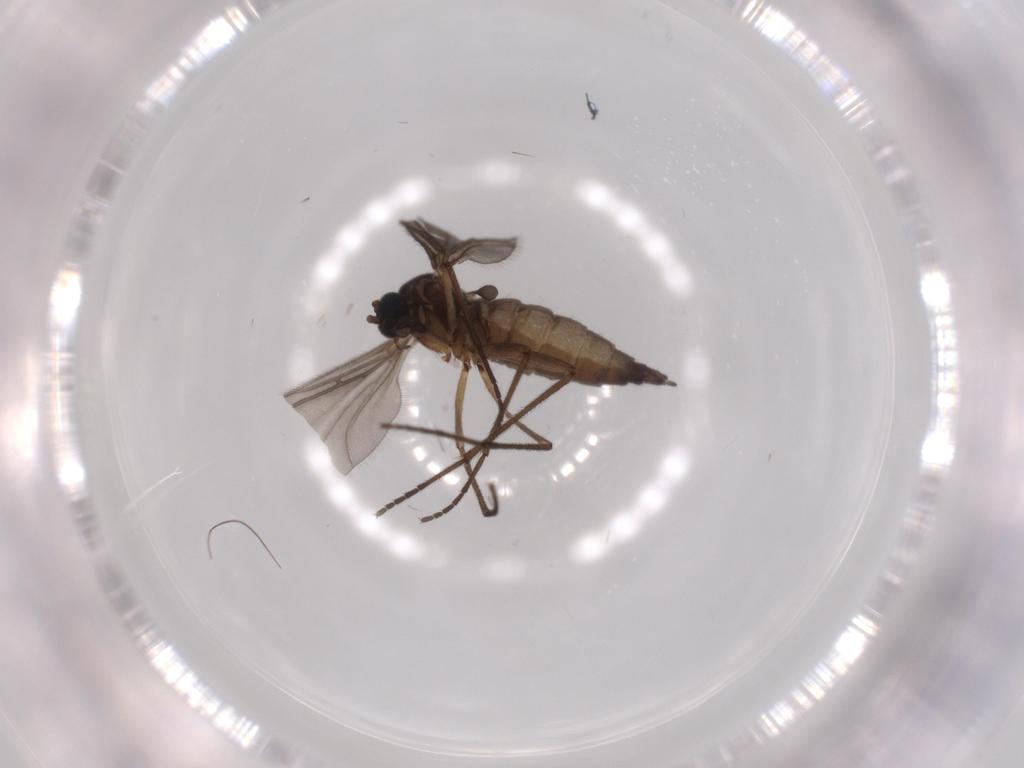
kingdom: Animalia
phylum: Arthropoda
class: Insecta
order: Diptera
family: Sciaridae
